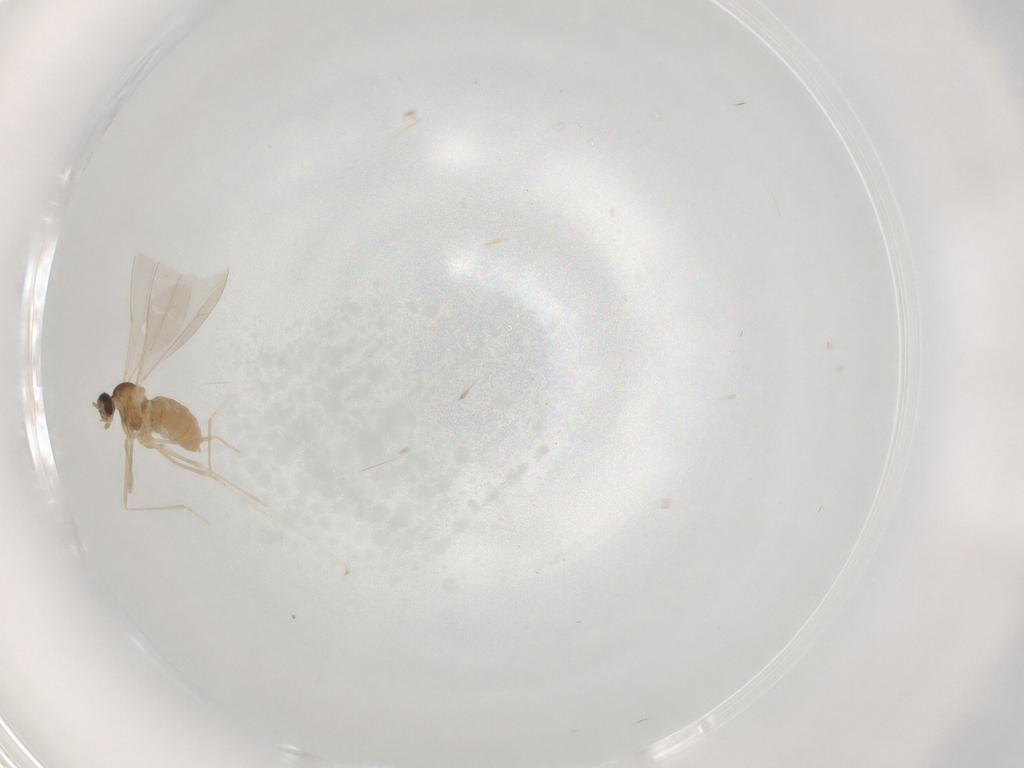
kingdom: Animalia
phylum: Arthropoda
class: Insecta
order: Diptera
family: Cecidomyiidae
